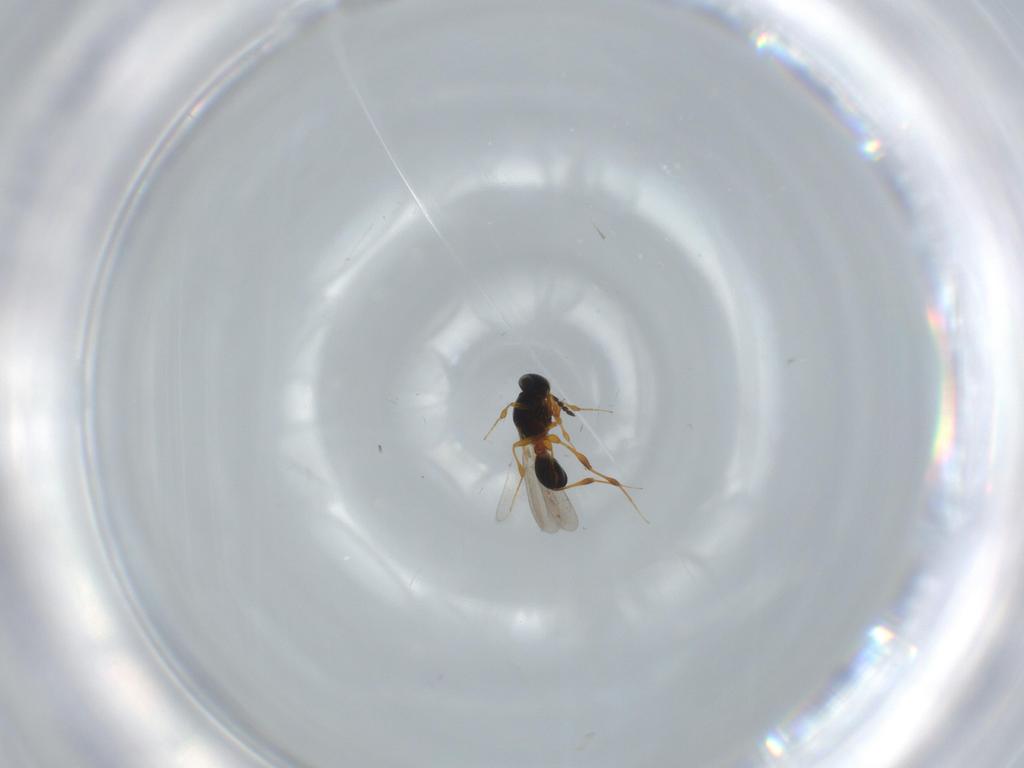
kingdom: Animalia
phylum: Arthropoda
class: Insecta
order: Hymenoptera
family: Platygastridae
